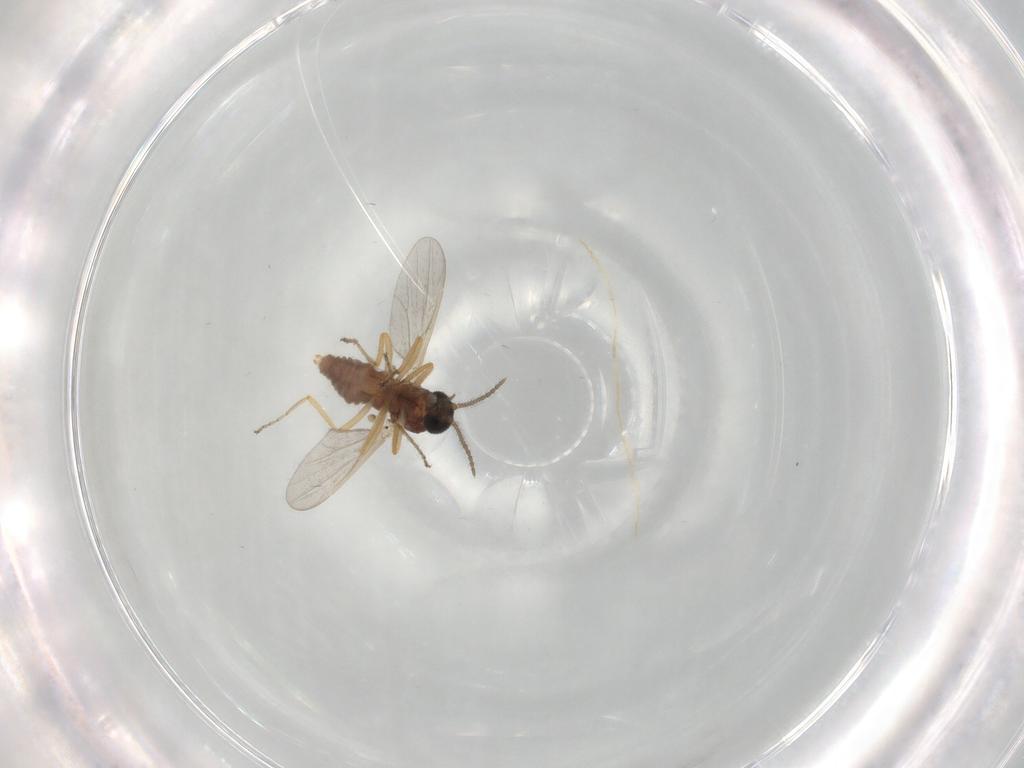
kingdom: Animalia
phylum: Arthropoda
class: Insecta
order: Diptera
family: Ceratopogonidae
